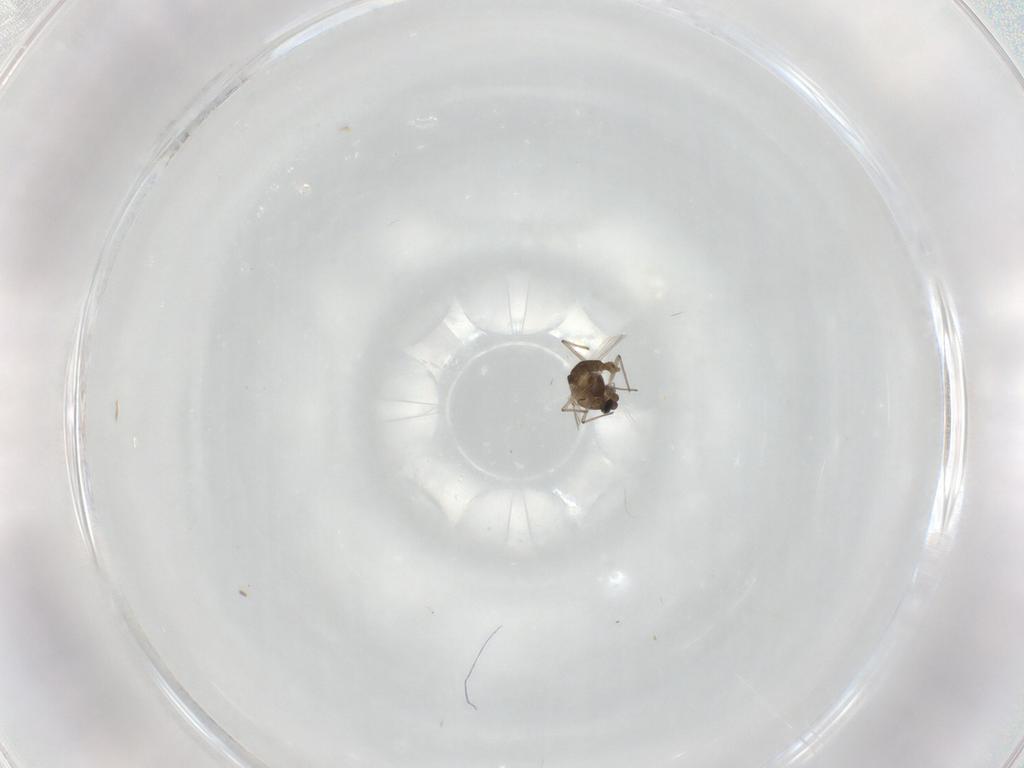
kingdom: Animalia
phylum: Arthropoda
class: Insecta
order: Diptera
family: Chironomidae
